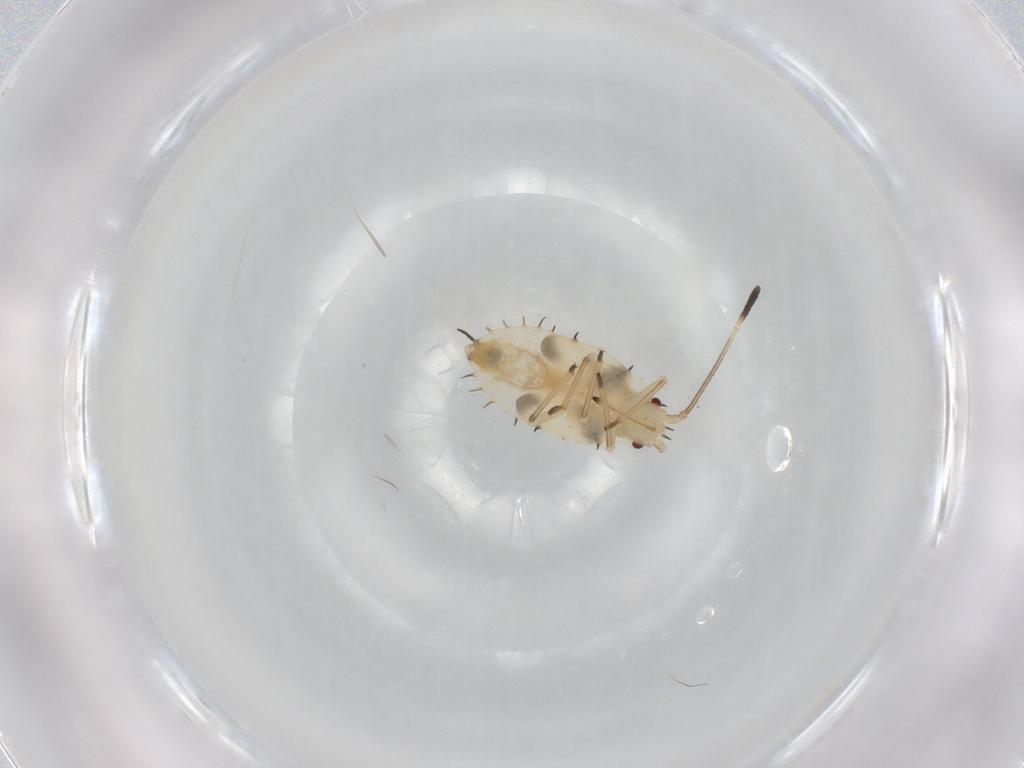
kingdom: Animalia
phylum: Arthropoda
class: Insecta
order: Hemiptera
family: Tingidae
